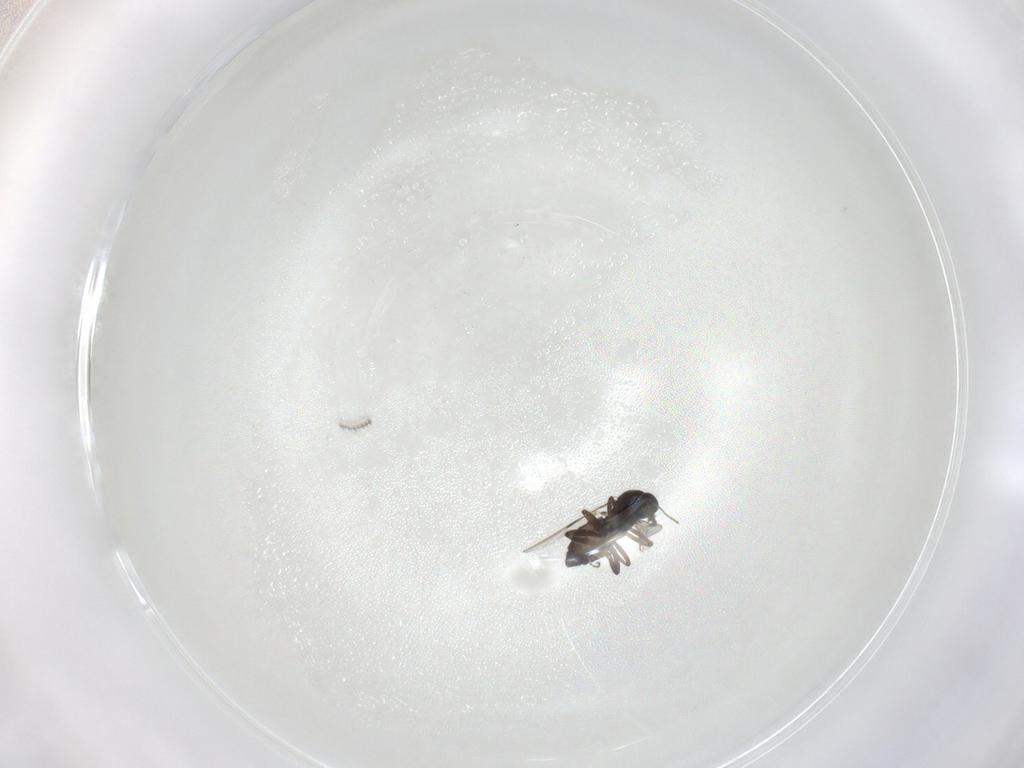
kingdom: Animalia
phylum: Arthropoda
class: Insecta
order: Diptera
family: Ceratopogonidae
